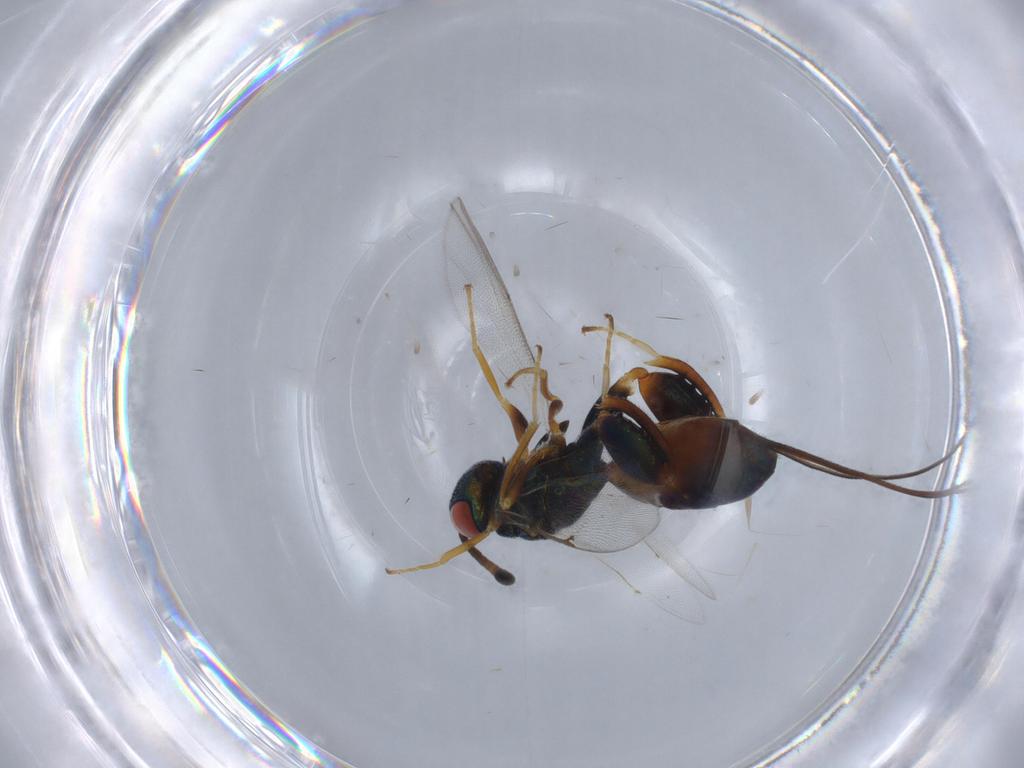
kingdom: Animalia
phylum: Arthropoda
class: Insecta
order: Hymenoptera
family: Torymidae
